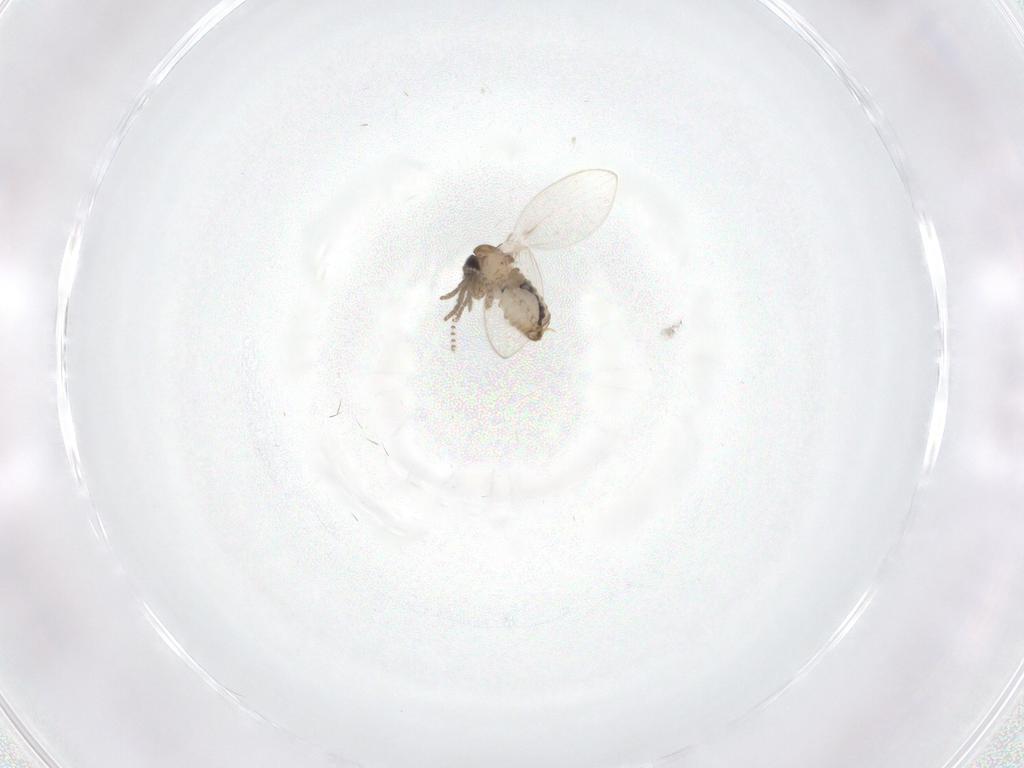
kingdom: Animalia
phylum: Arthropoda
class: Insecta
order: Diptera
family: Psychodidae
